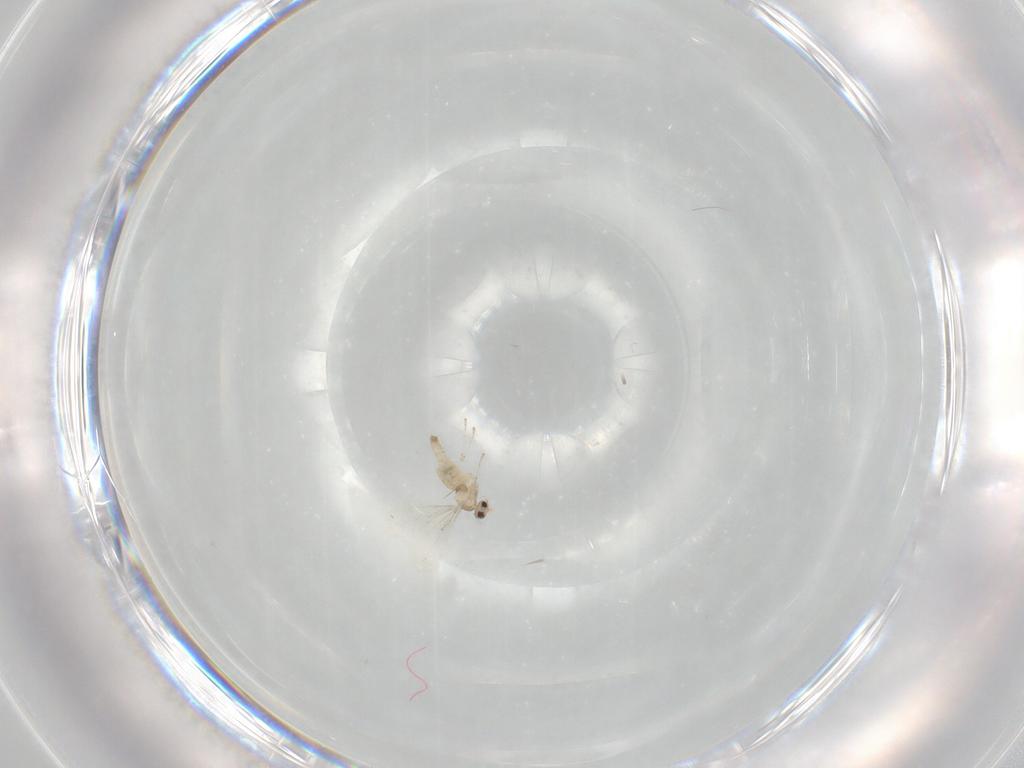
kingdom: Animalia
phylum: Arthropoda
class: Insecta
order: Diptera
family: Cecidomyiidae
